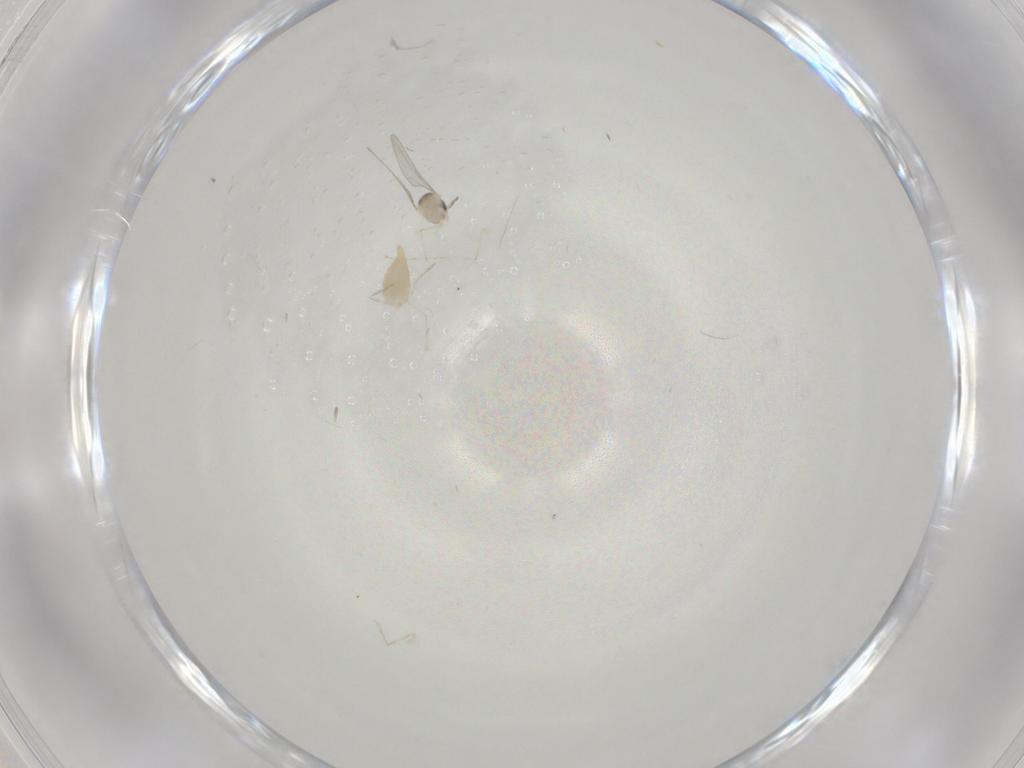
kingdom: Animalia
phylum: Arthropoda
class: Insecta
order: Diptera
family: Cecidomyiidae
